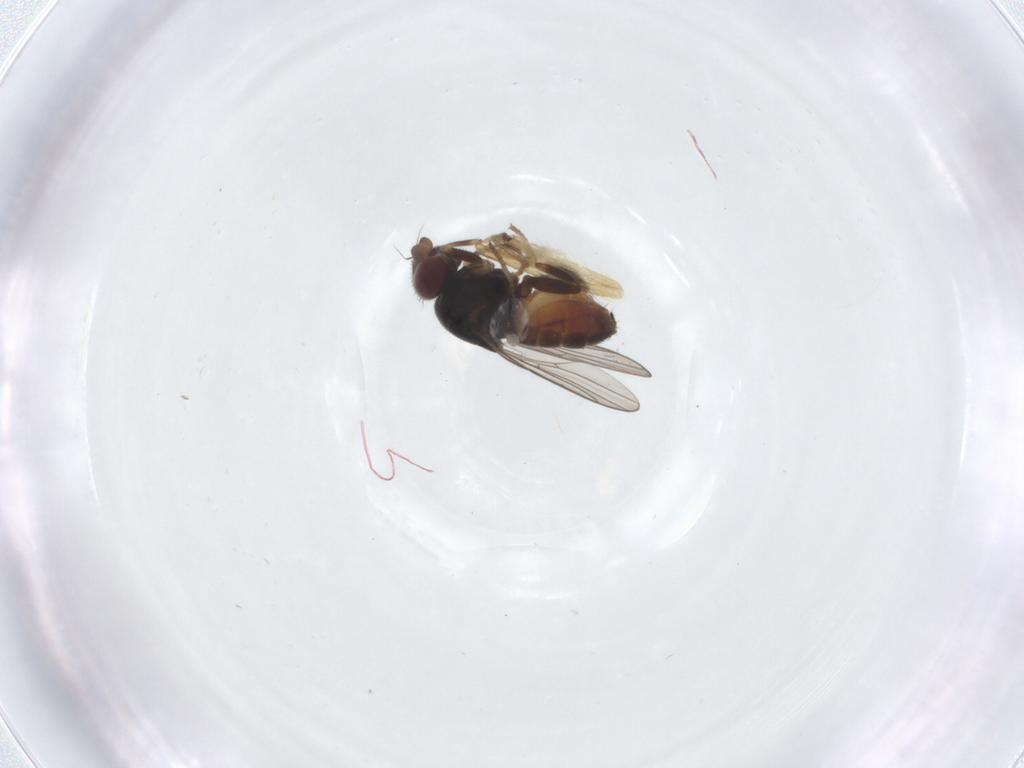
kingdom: Animalia
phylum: Arthropoda
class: Insecta
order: Diptera
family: Chloropidae
